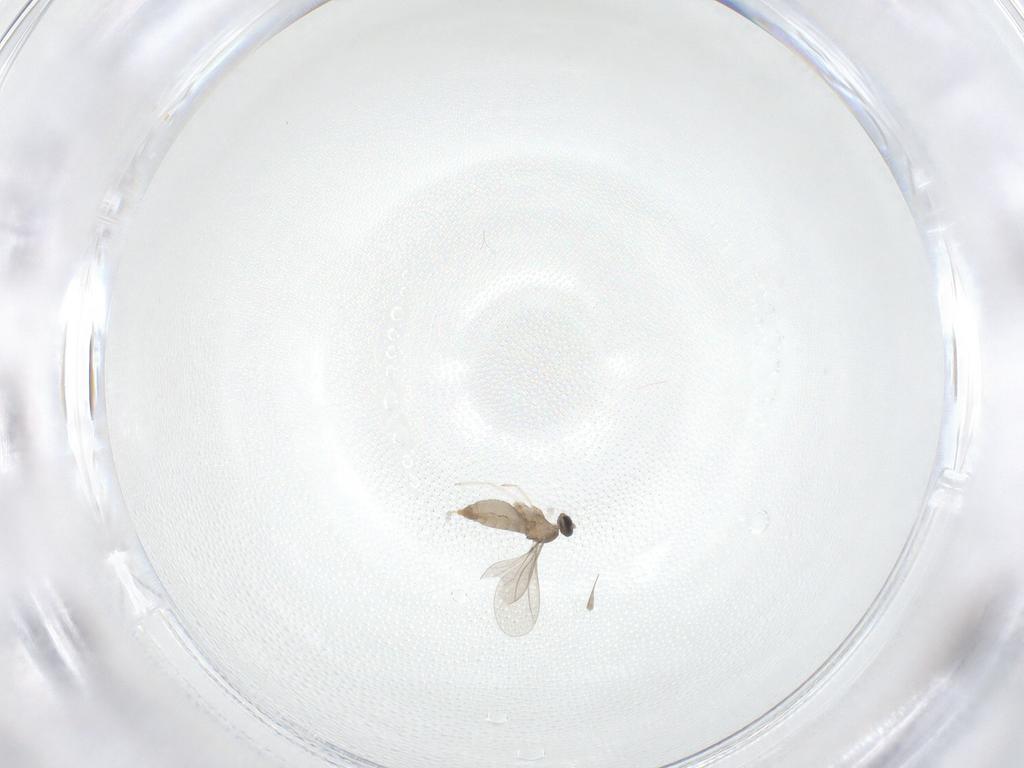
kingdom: Animalia
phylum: Arthropoda
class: Insecta
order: Diptera
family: Cecidomyiidae
